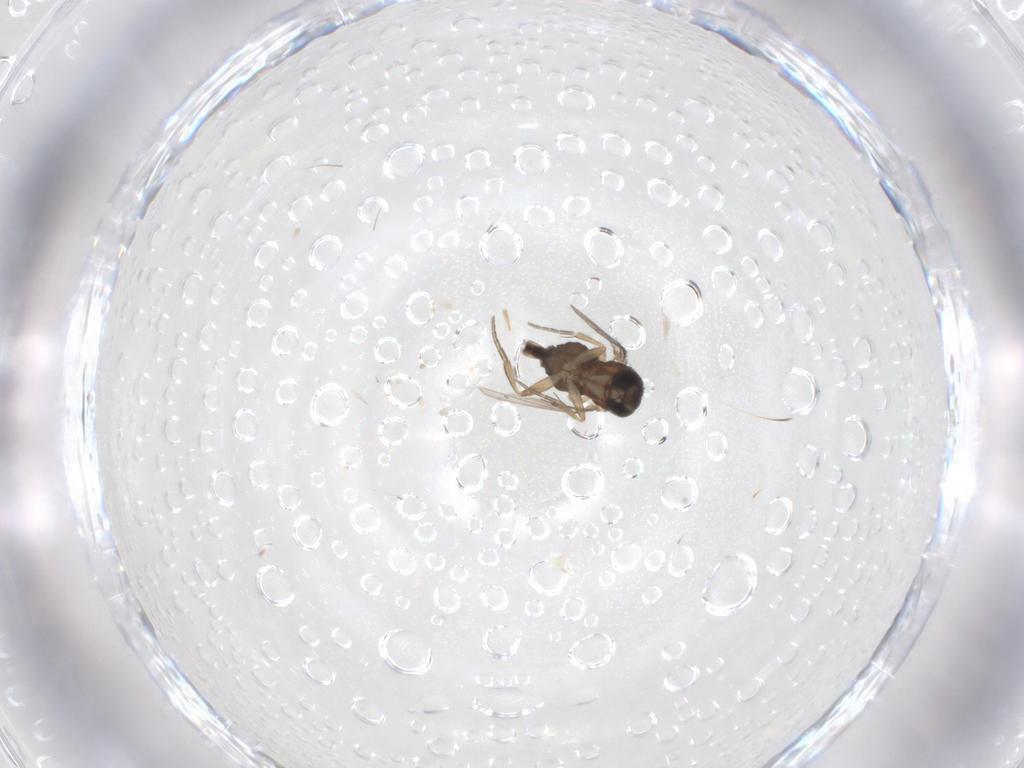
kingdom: Animalia
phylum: Arthropoda
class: Insecta
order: Diptera
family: Phoridae
